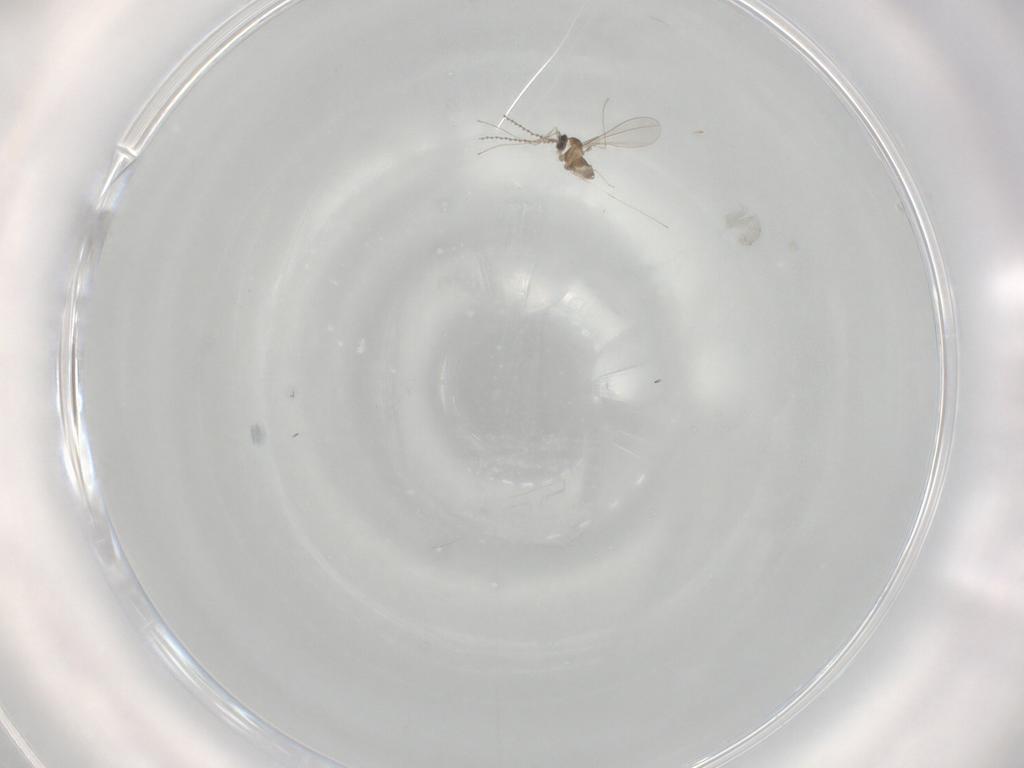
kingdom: Animalia
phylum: Arthropoda
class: Insecta
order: Diptera
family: Cecidomyiidae
